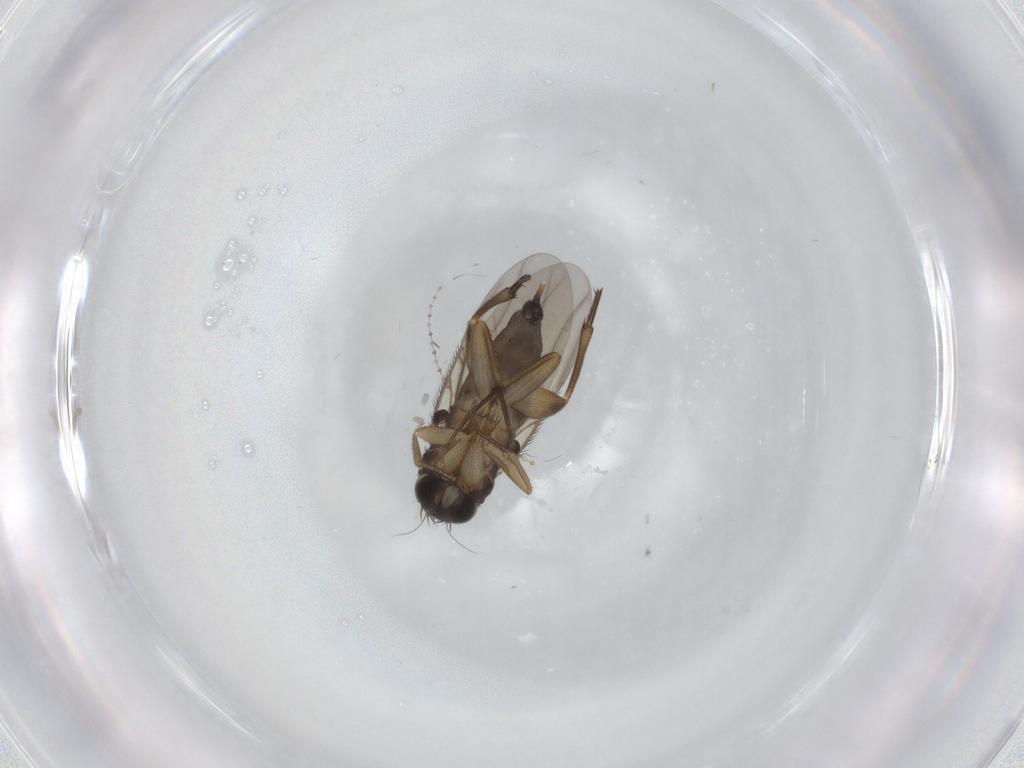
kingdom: Animalia
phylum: Arthropoda
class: Insecta
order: Diptera
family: Phoridae
